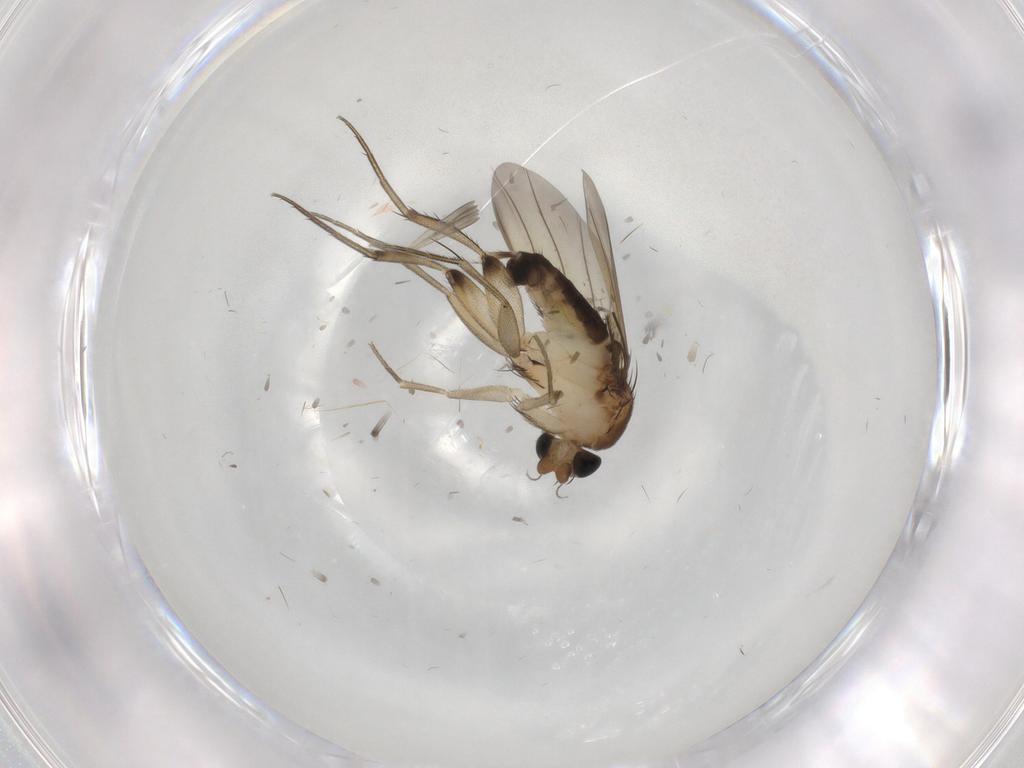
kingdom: Animalia
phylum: Arthropoda
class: Insecta
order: Diptera
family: Phoridae
